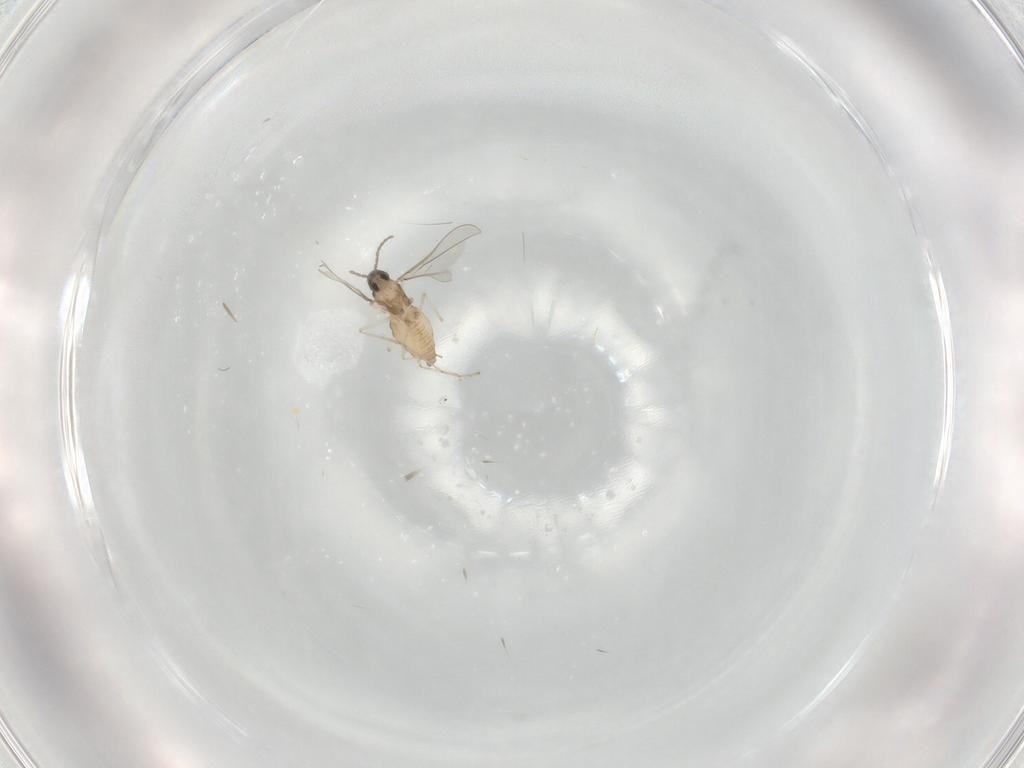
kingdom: Animalia
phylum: Arthropoda
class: Insecta
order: Diptera
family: Cecidomyiidae
